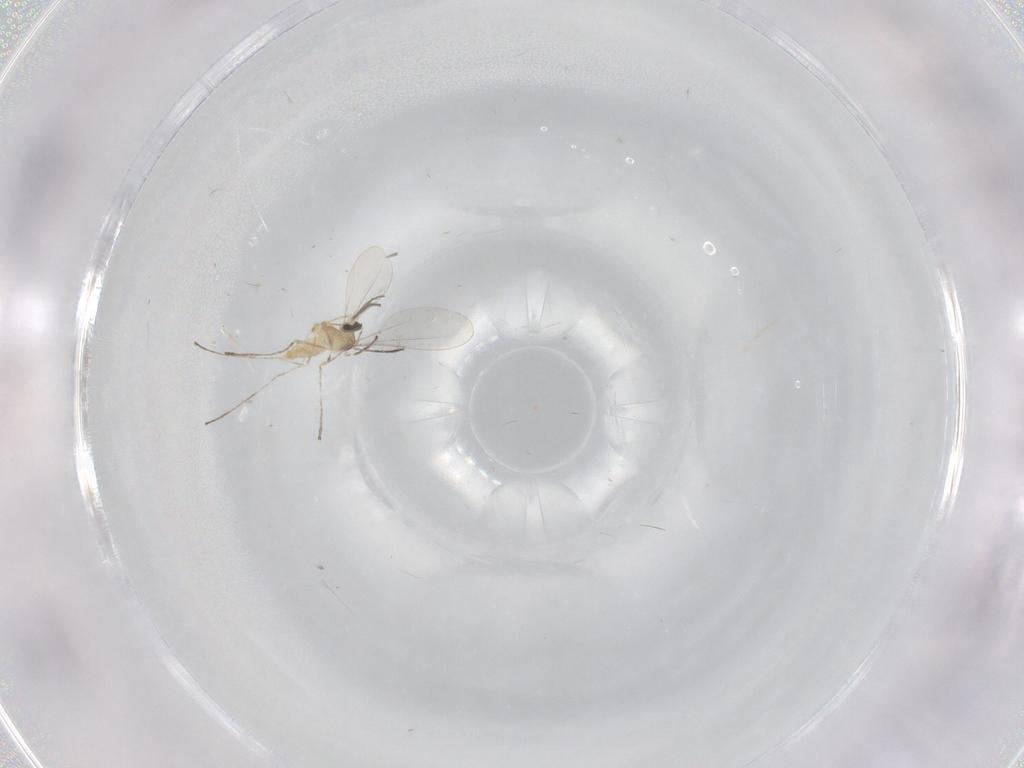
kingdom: Animalia
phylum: Arthropoda
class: Insecta
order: Diptera
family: Cecidomyiidae
